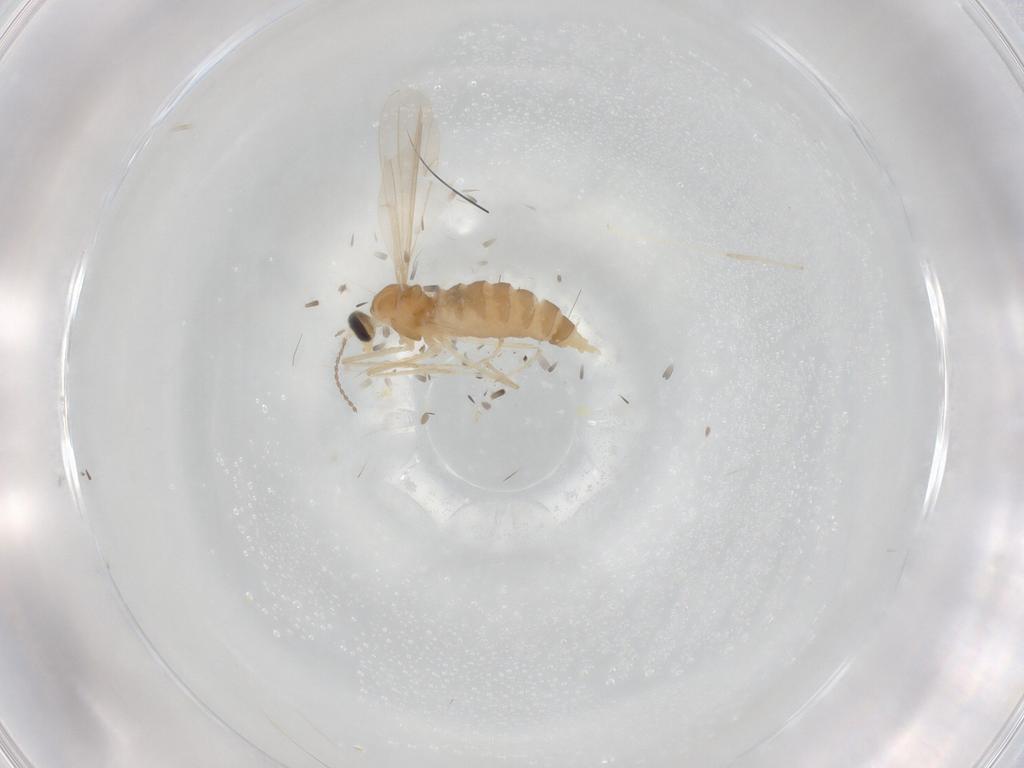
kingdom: Animalia
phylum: Arthropoda
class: Insecta
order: Diptera
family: Cecidomyiidae
